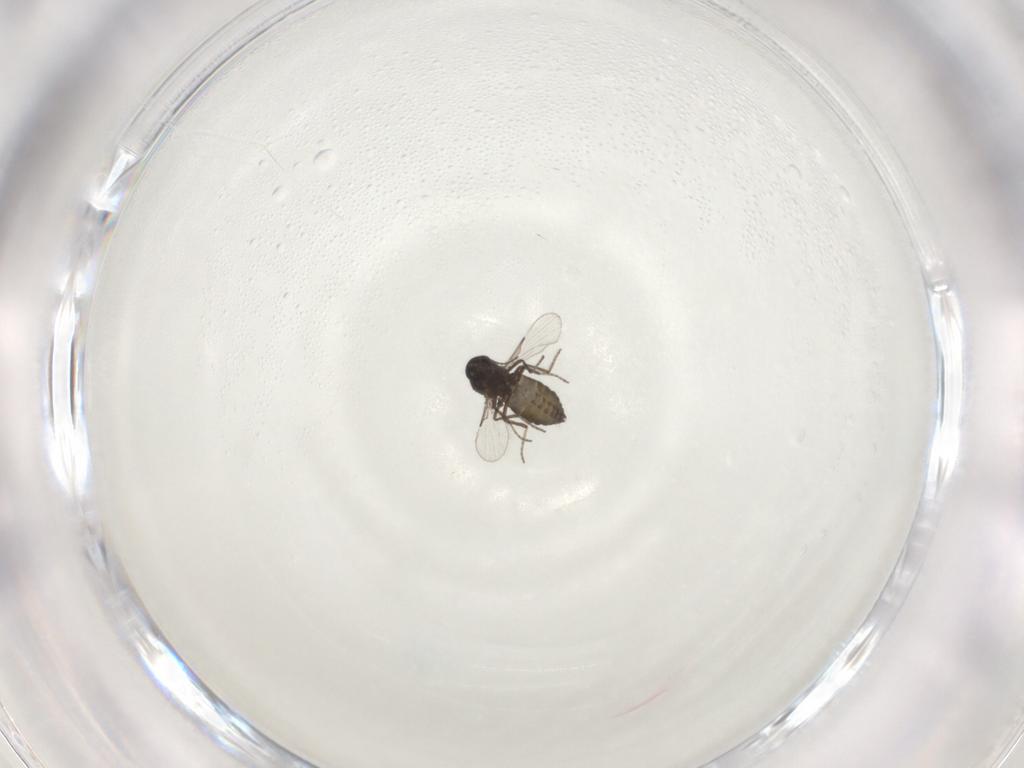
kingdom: Animalia
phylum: Arthropoda
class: Insecta
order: Diptera
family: Ceratopogonidae
